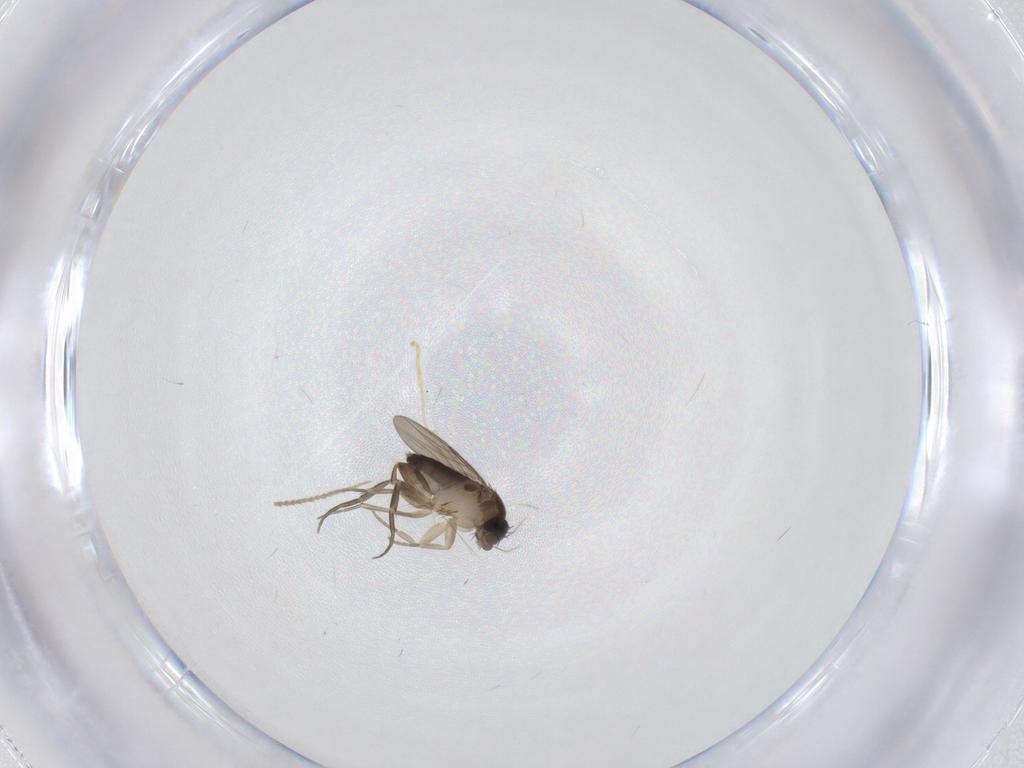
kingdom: Animalia
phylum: Arthropoda
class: Insecta
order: Diptera
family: Phoridae
